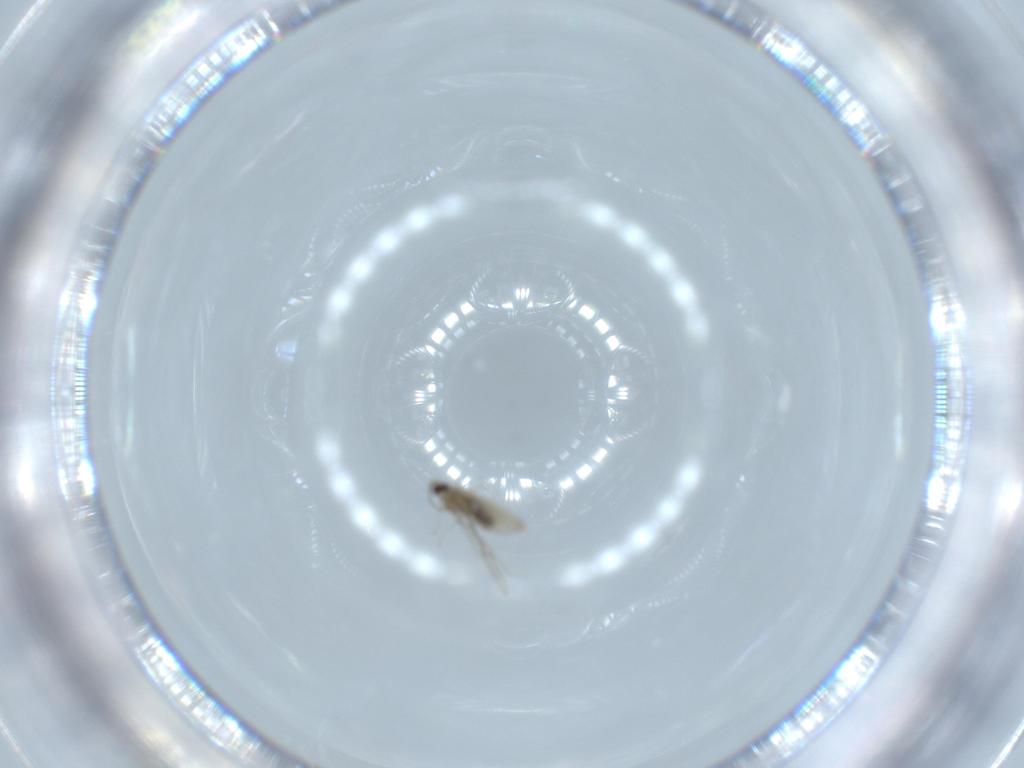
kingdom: Animalia
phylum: Arthropoda
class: Insecta
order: Diptera
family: Cecidomyiidae
